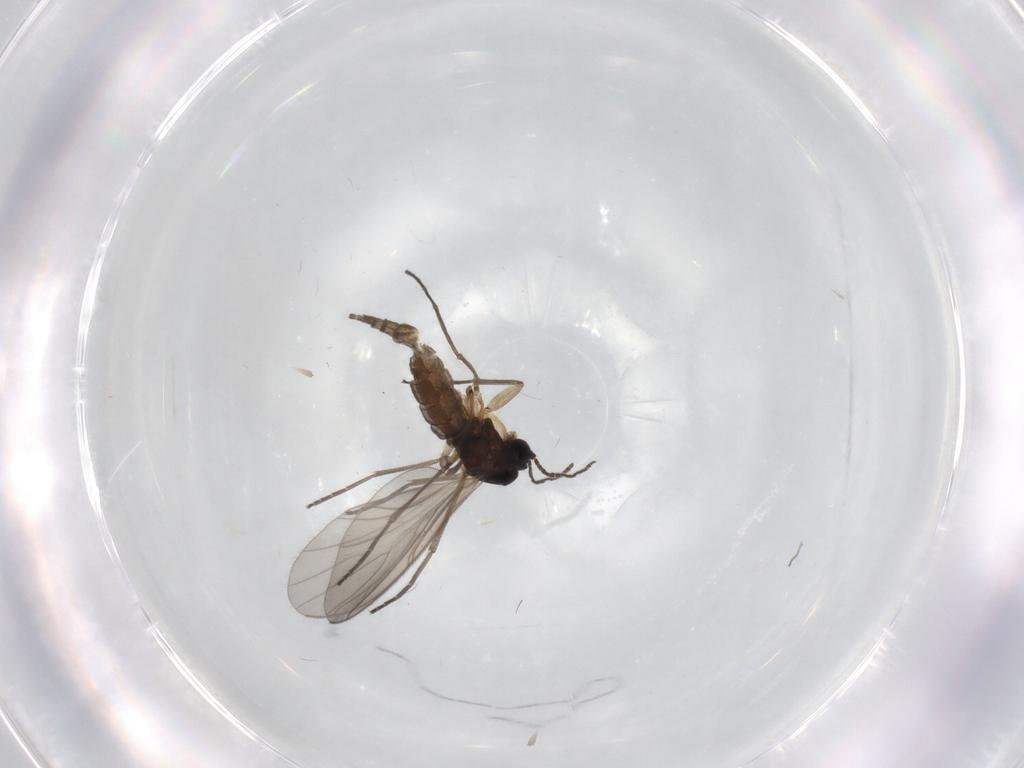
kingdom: Animalia
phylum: Arthropoda
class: Insecta
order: Diptera
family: Sciaridae
